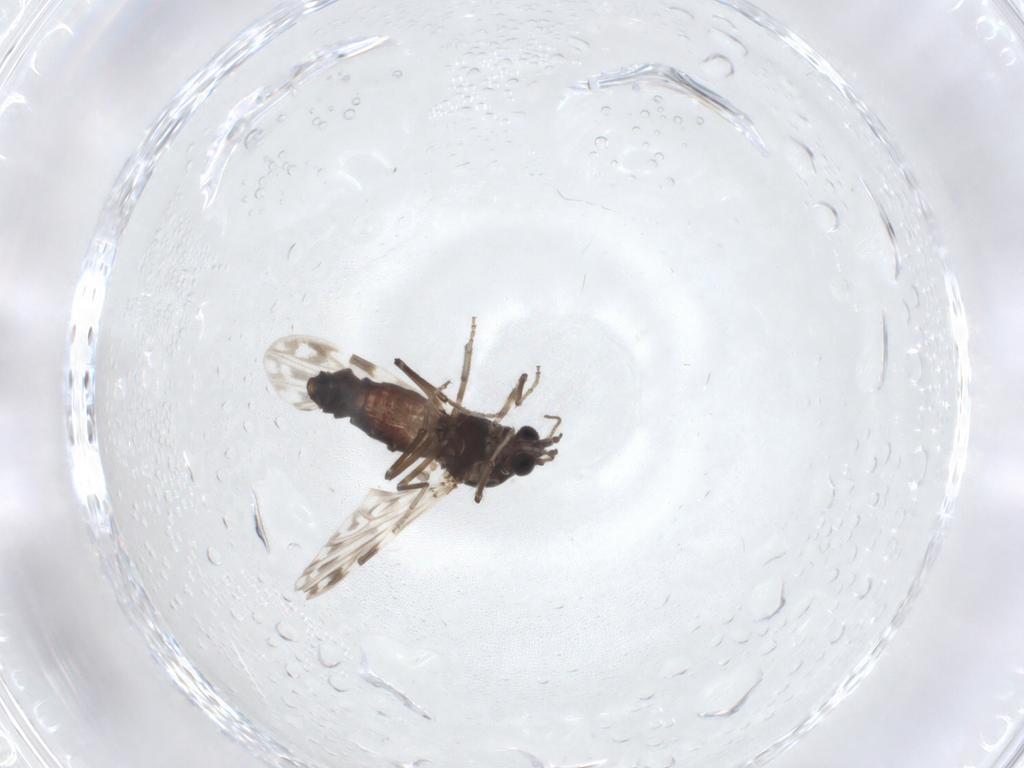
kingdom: Animalia
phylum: Arthropoda
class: Insecta
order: Diptera
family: Ceratopogonidae
